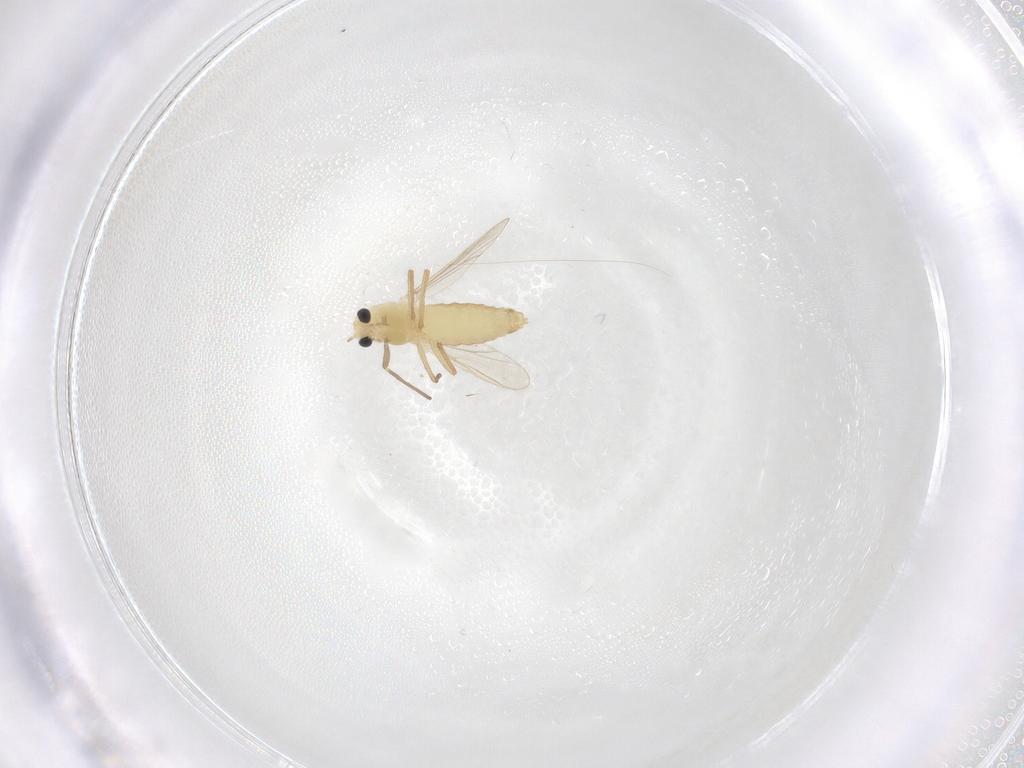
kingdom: Animalia
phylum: Arthropoda
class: Insecta
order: Diptera
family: Chironomidae
